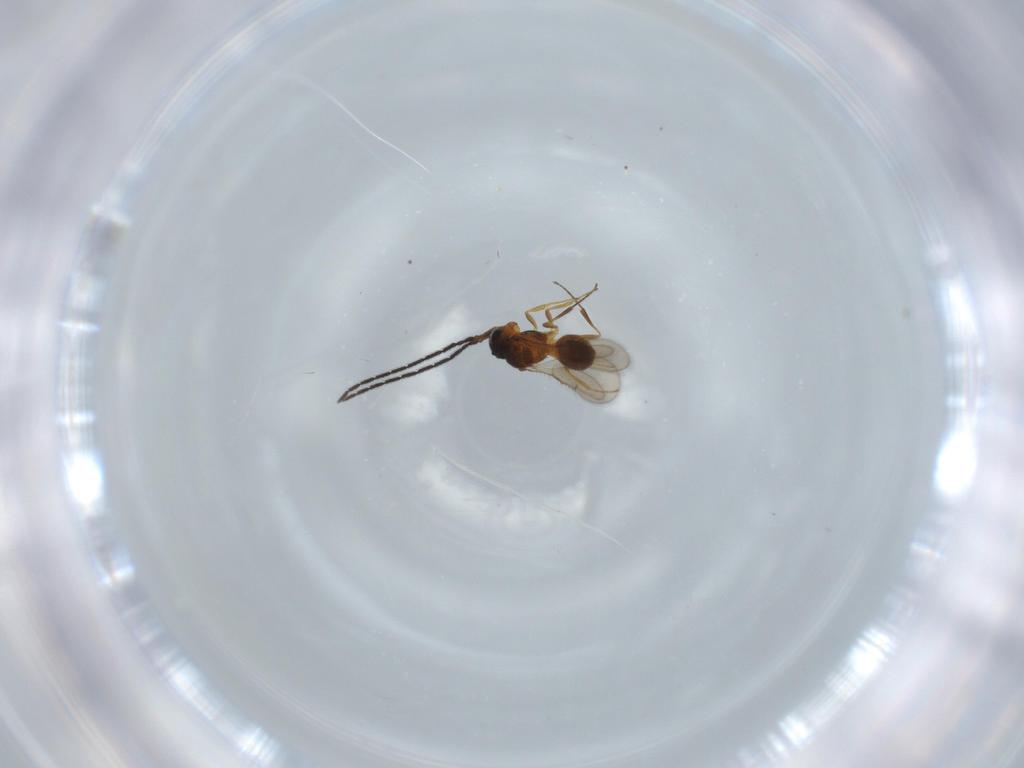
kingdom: Animalia
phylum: Arthropoda
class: Insecta
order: Hymenoptera
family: Scelionidae
